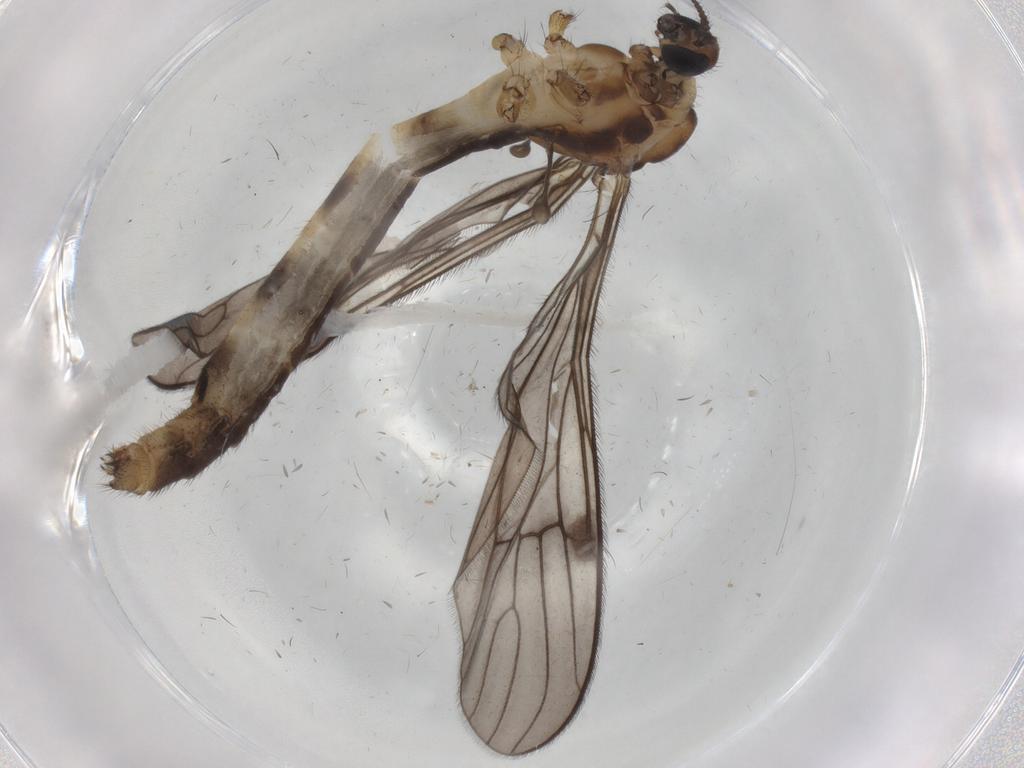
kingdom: Animalia
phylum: Arthropoda
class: Insecta
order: Diptera
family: Limoniidae
